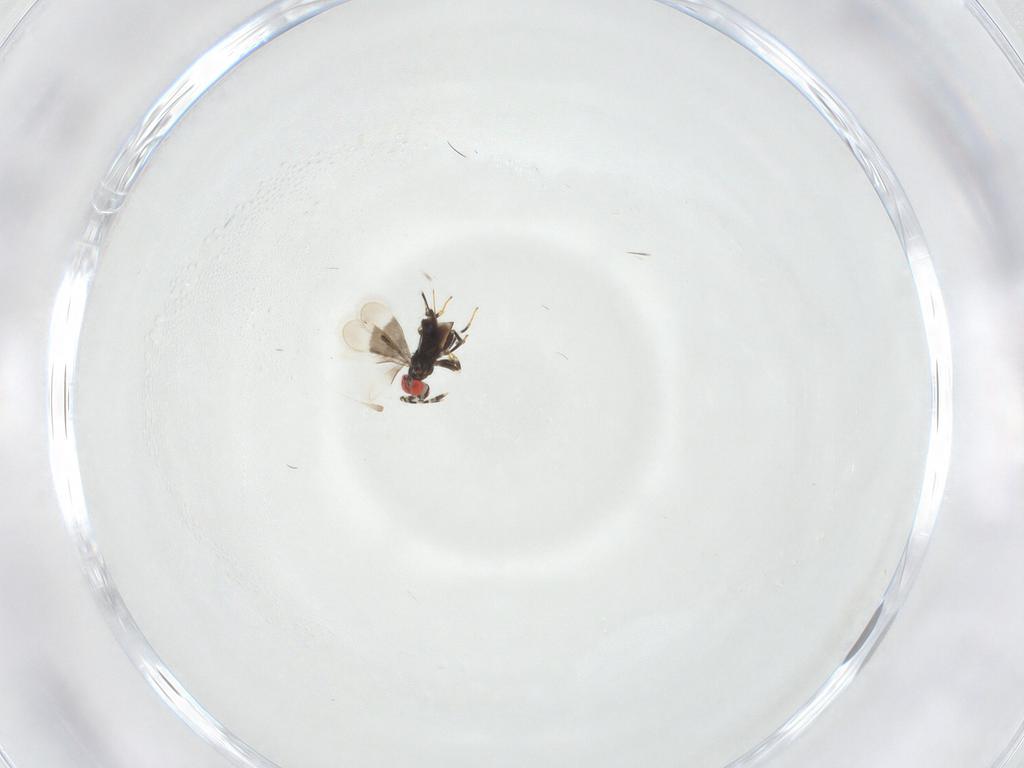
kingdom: Animalia
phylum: Arthropoda
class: Insecta
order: Hymenoptera
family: Azotidae
